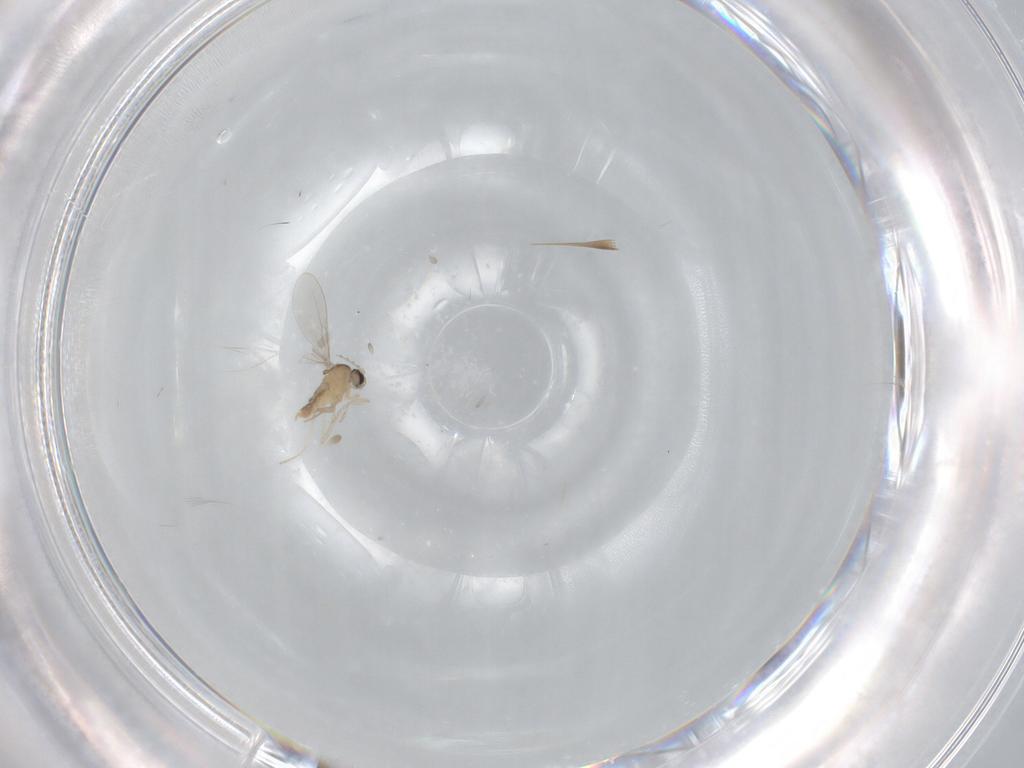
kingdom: Animalia
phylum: Arthropoda
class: Insecta
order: Diptera
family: Cecidomyiidae
